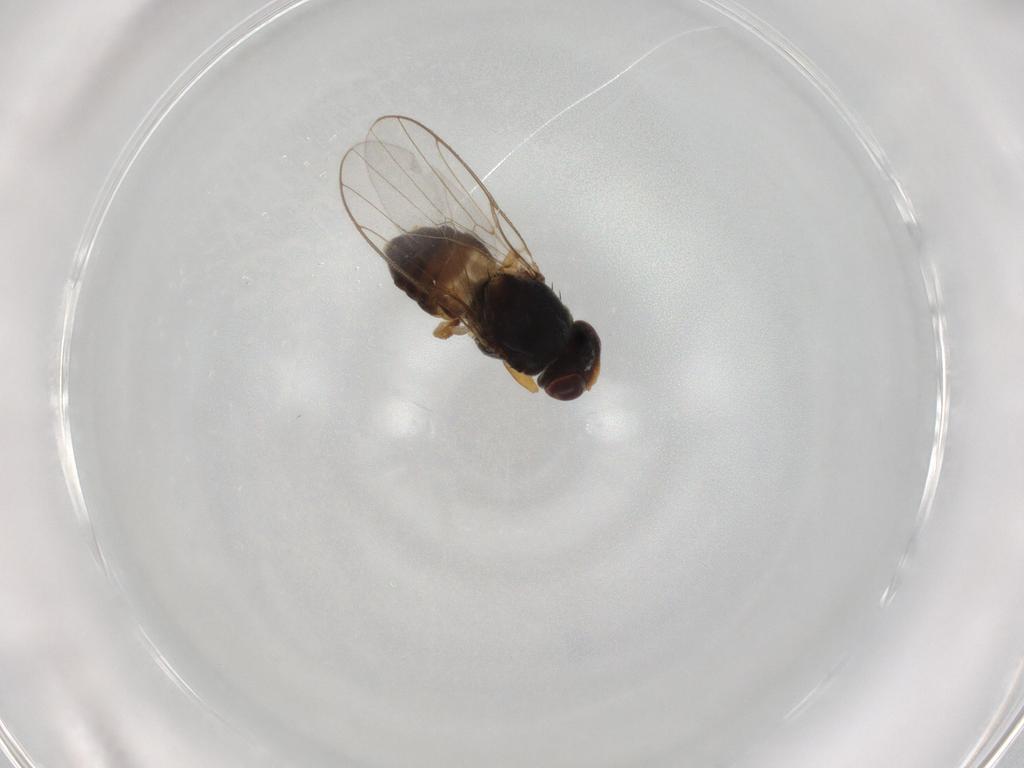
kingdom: Animalia
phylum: Arthropoda
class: Insecta
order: Diptera
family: Chloropidae
